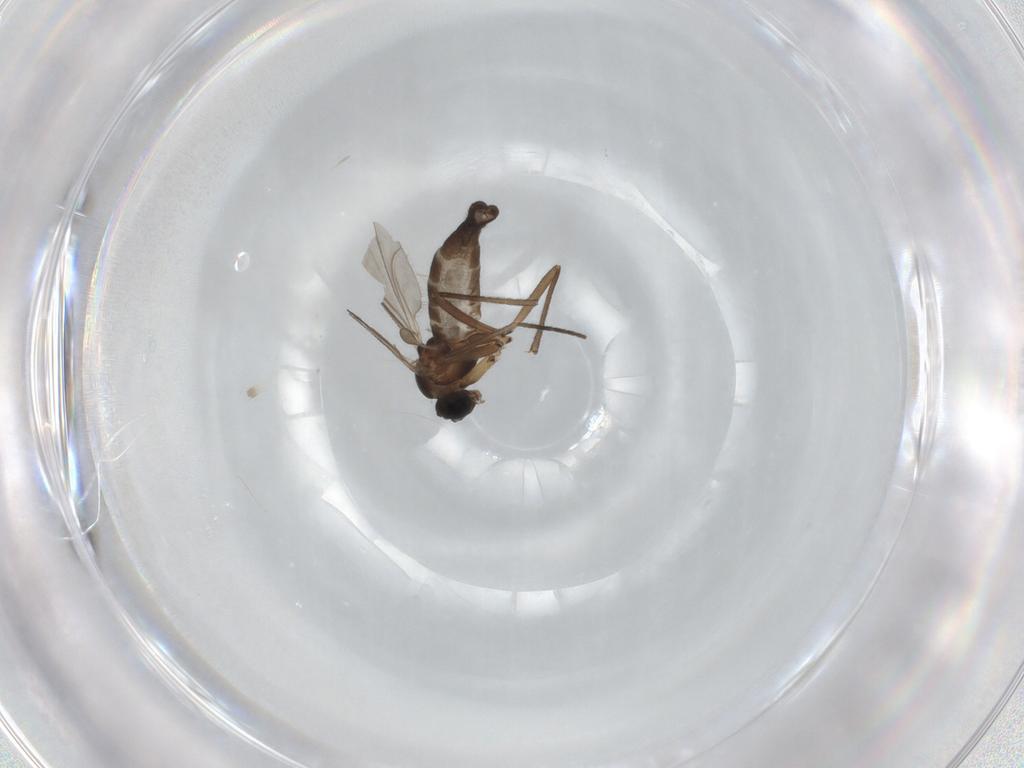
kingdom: Animalia
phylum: Arthropoda
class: Insecta
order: Diptera
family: Sciaridae
